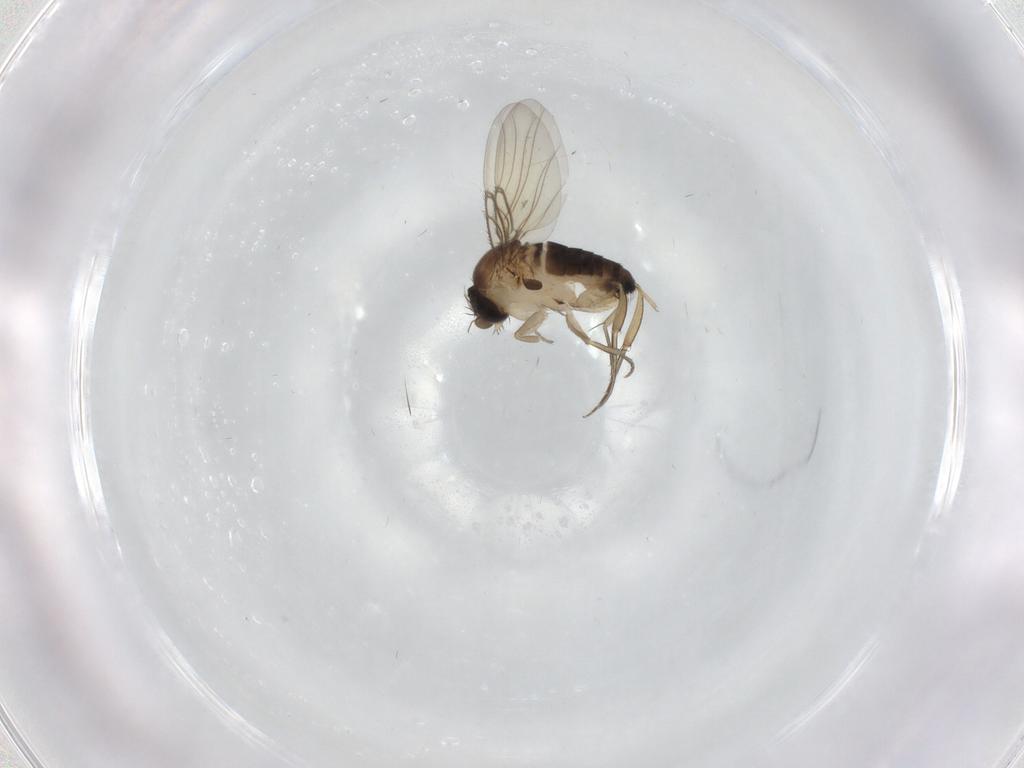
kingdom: Animalia
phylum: Arthropoda
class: Insecta
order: Diptera
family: Phoridae
